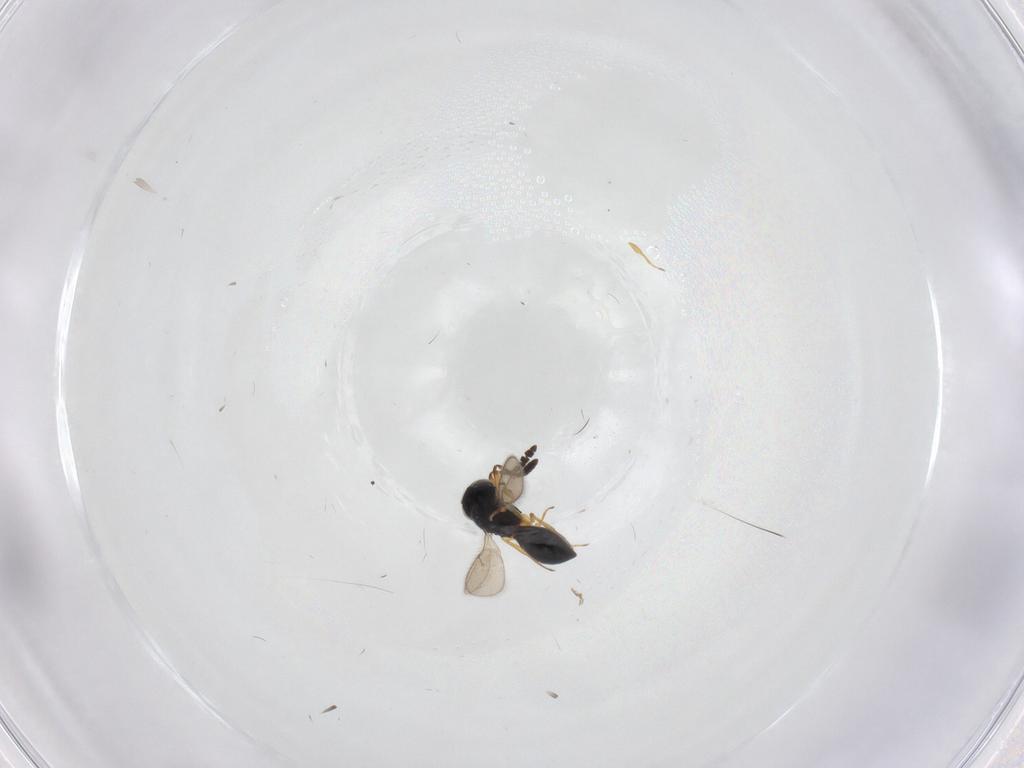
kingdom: Animalia
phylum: Arthropoda
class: Insecta
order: Hymenoptera
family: Scelionidae
